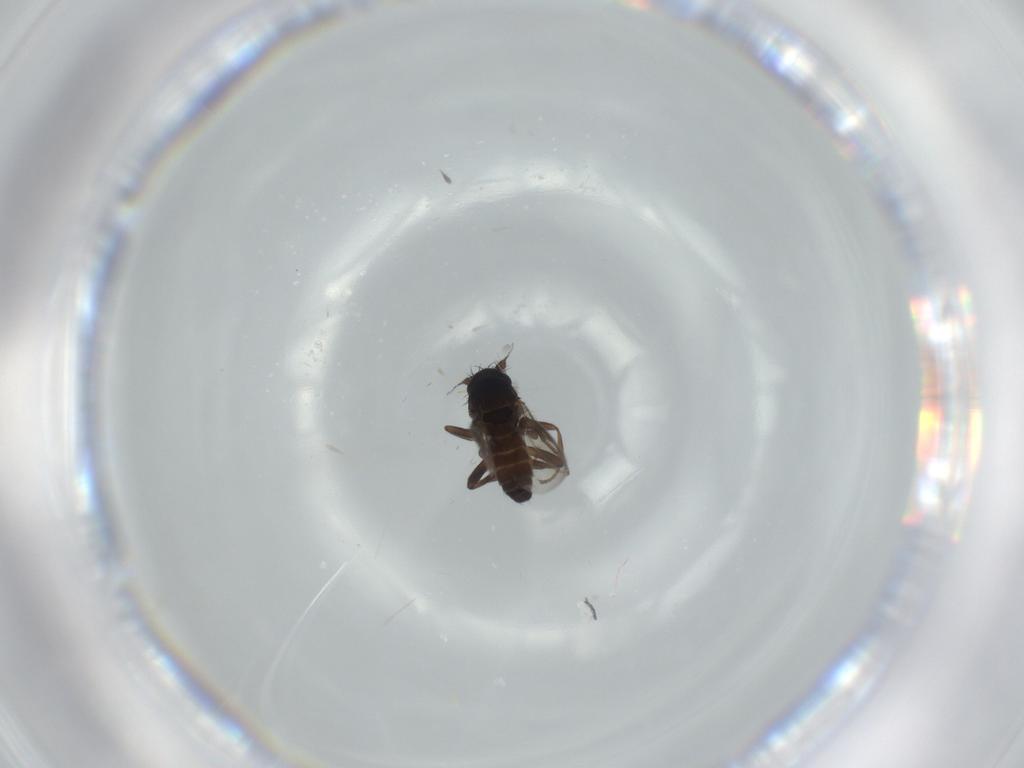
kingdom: Animalia
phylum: Arthropoda
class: Insecta
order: Diptera
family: Sphaeroceridae
